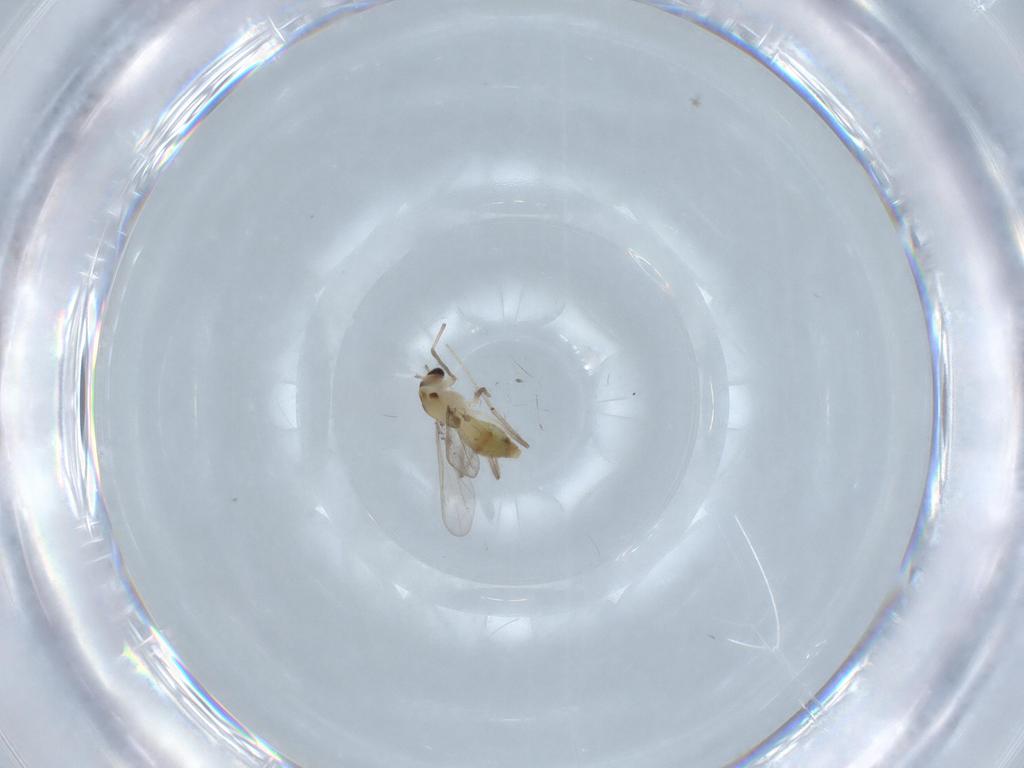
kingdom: Animalia
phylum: Arthropoda
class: Insecta
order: Diptera
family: Chironomidae
